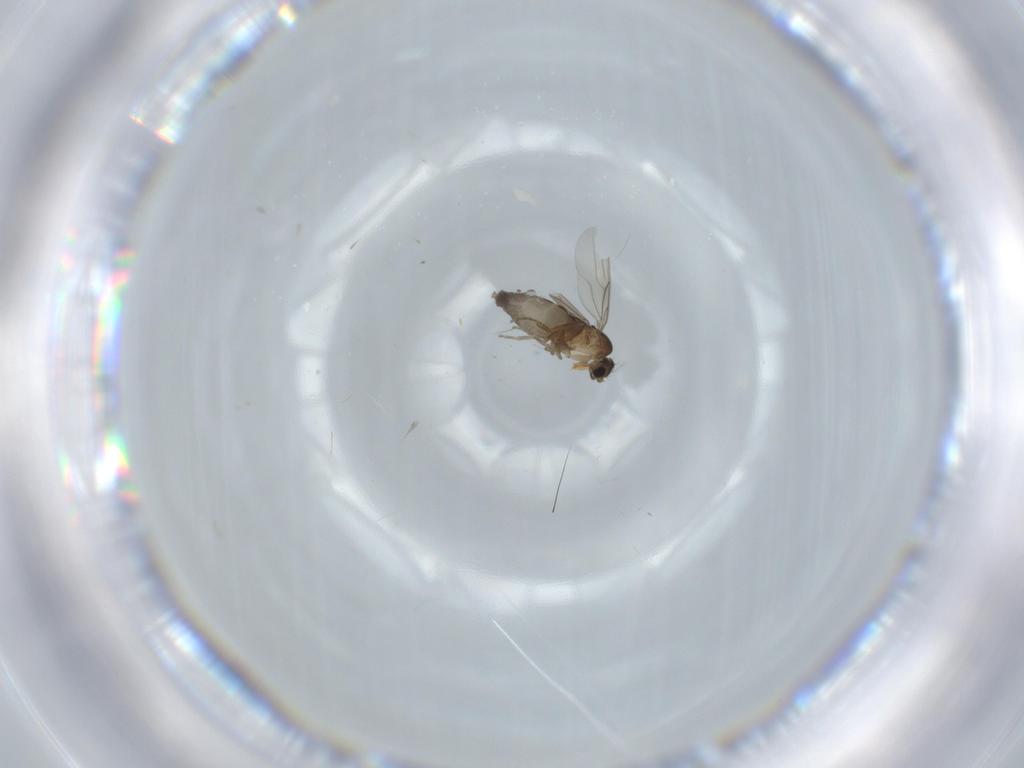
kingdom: Animalia
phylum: Arthropoda
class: Insecta
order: Diptera
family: Phoridae
